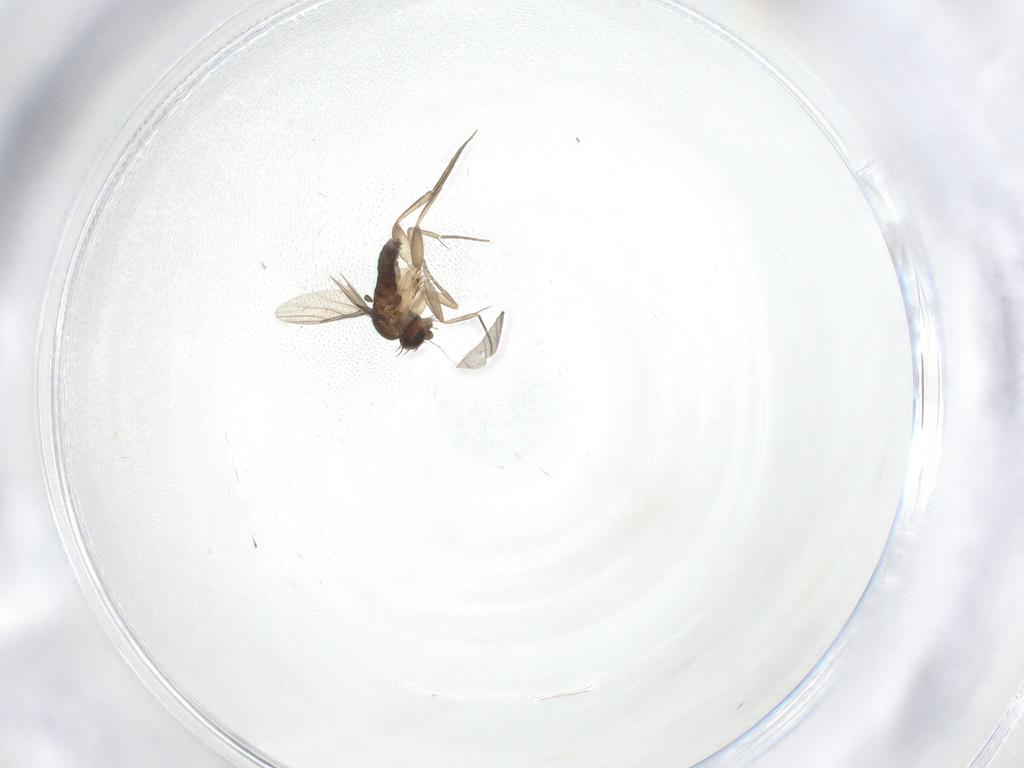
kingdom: Animalia
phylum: Arthropoda
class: Insecta
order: Diptera
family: Phoridae
